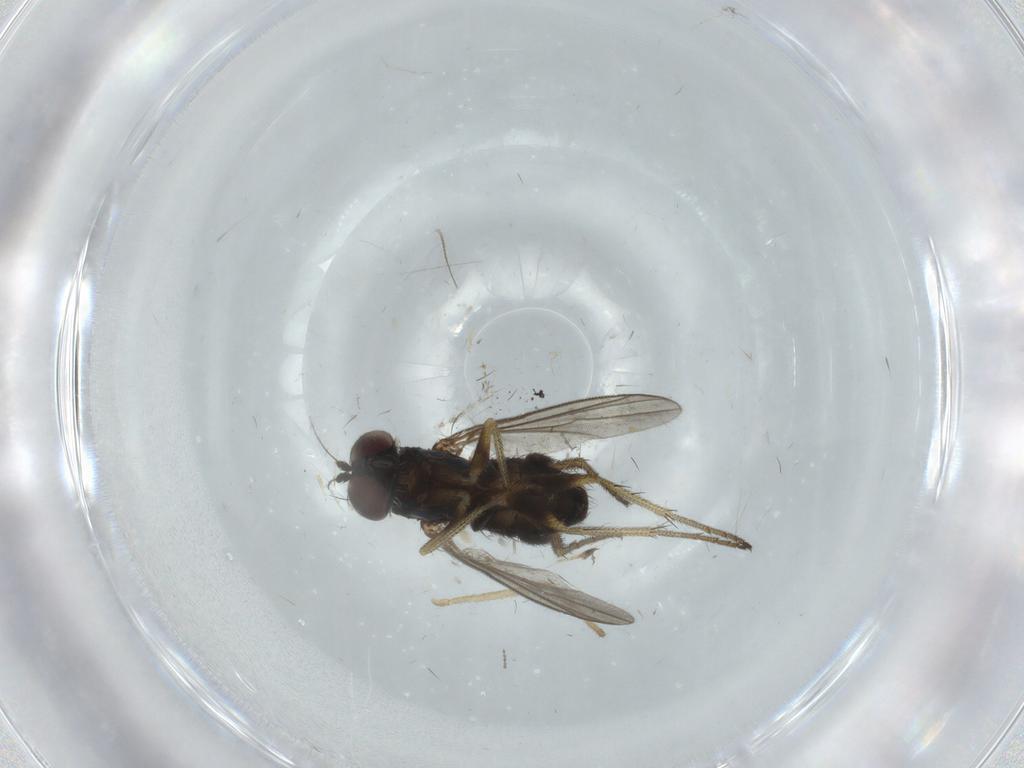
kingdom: Animalia
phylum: Arthropoda
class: Insecta
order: Diptera
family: Dolichopodidae
